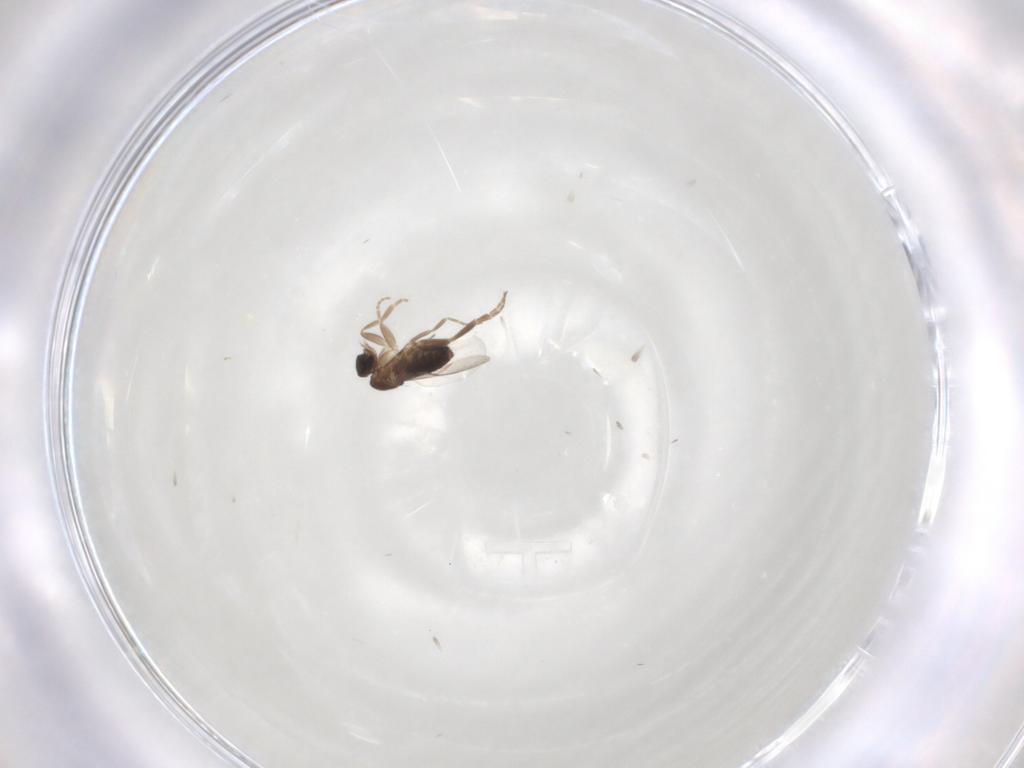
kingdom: Animalia
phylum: Arthropoda
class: Insecta
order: Diptera
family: Phoridae
